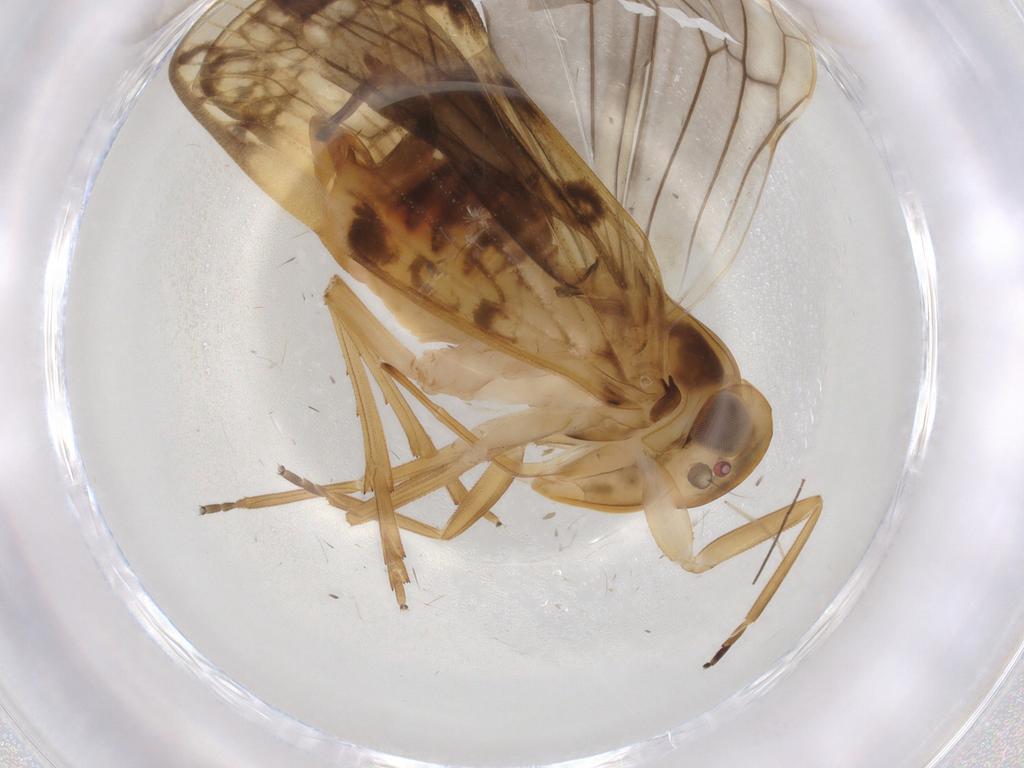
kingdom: Animalia
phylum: Arthropoda
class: Insecta
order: Hemiptera
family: Cixiidae
